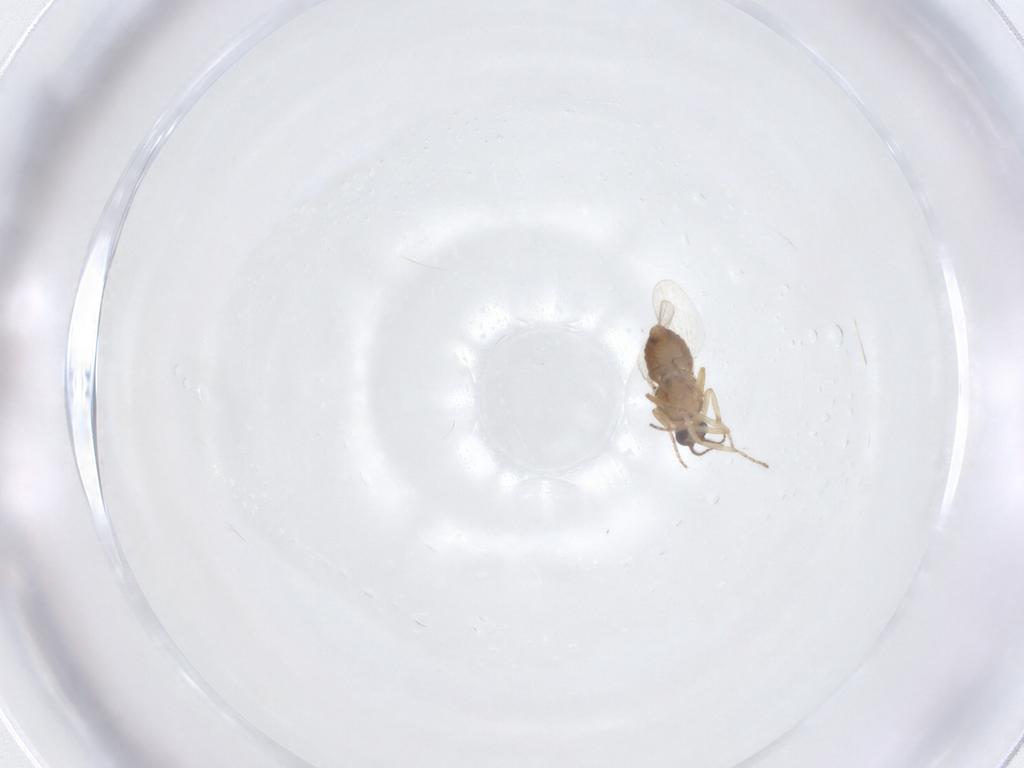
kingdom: Animalia
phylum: Arthropoda
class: Insecta
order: Diptera
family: Ceratopogonidae
